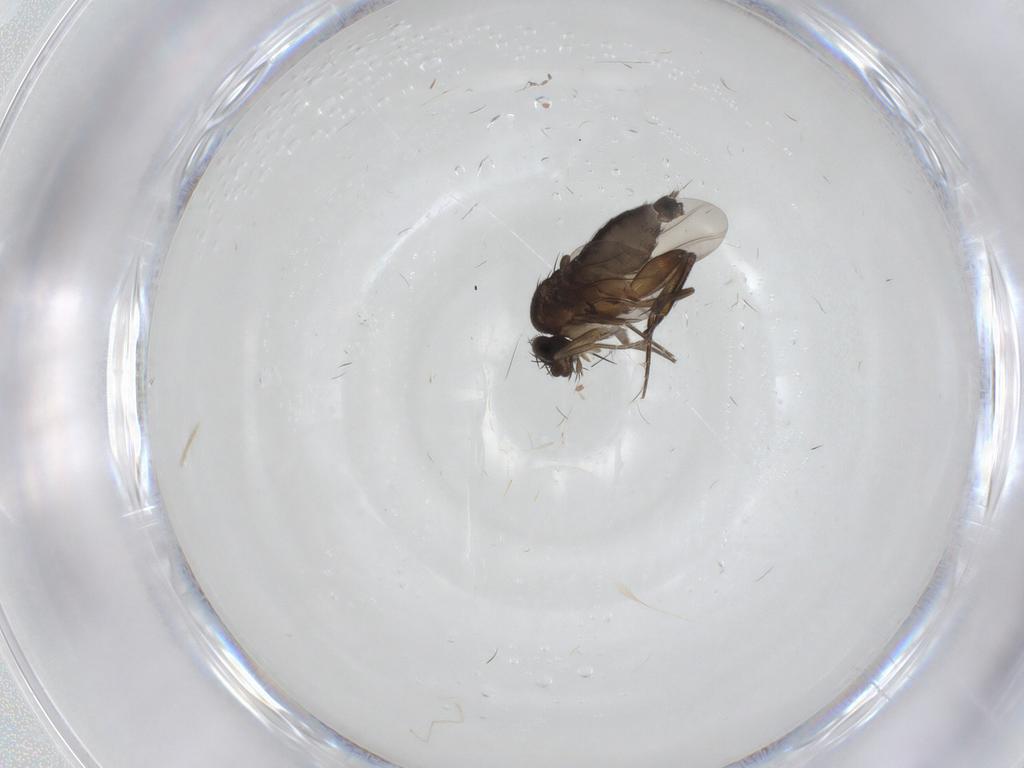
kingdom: Animalia
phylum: Arthropoda
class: Insecta
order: Diptera
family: Phoridae
